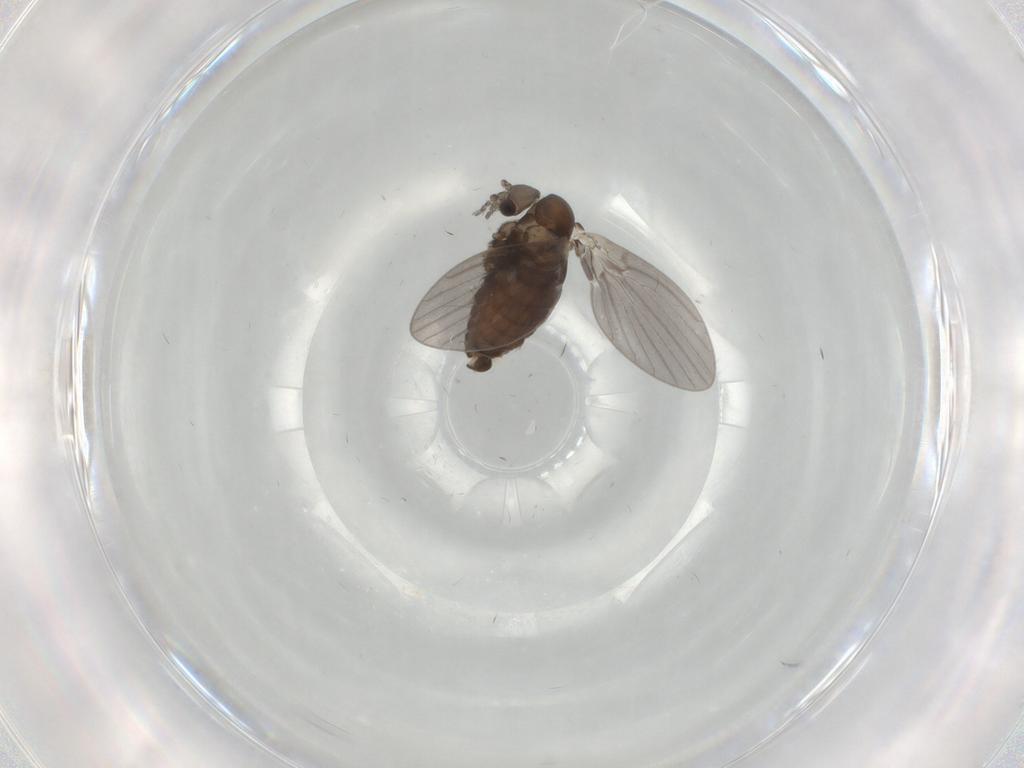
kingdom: Animalia
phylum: Arthropoda
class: Insecta
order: Diptera
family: Psychodidae
